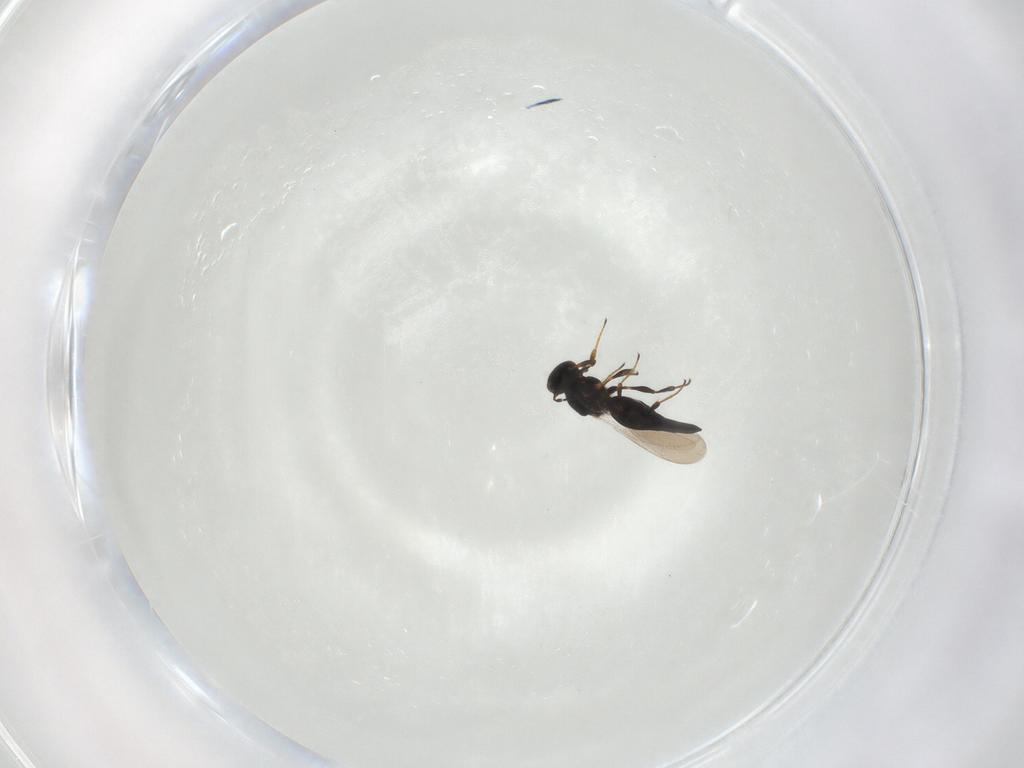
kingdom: Animalia
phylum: Arthropoda
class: Insecta
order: Hymenoptera
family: Platygastridae
